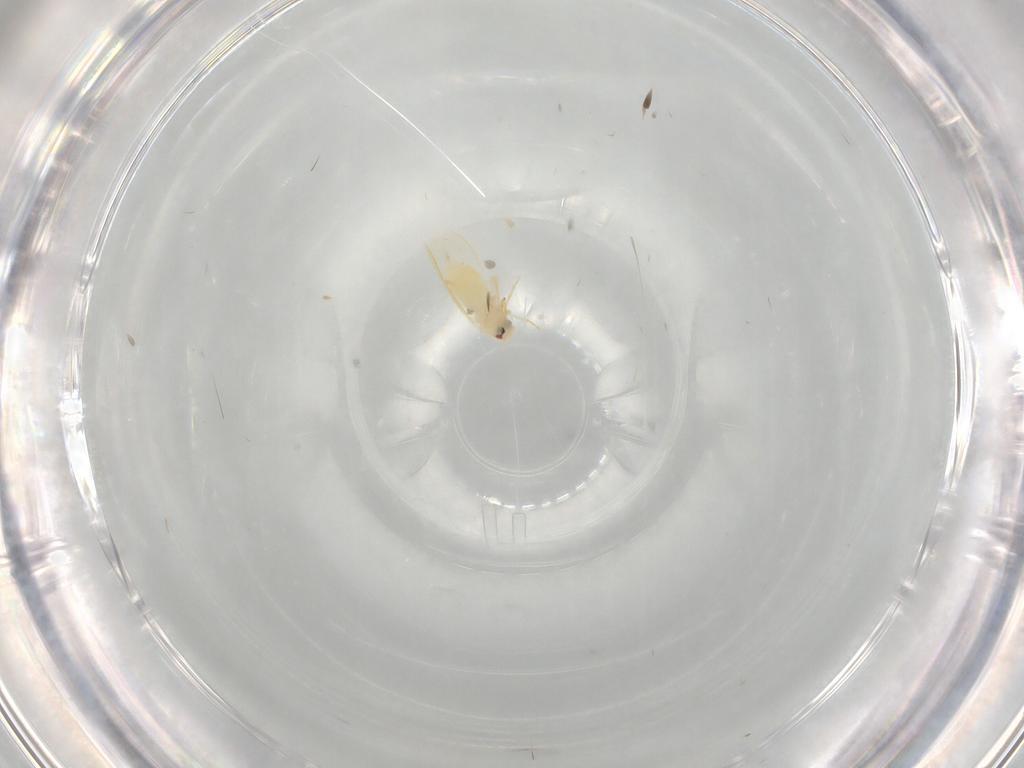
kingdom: Animalia
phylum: Arthropoda
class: Insecta
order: Hemiptera
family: Aleyrodidae
